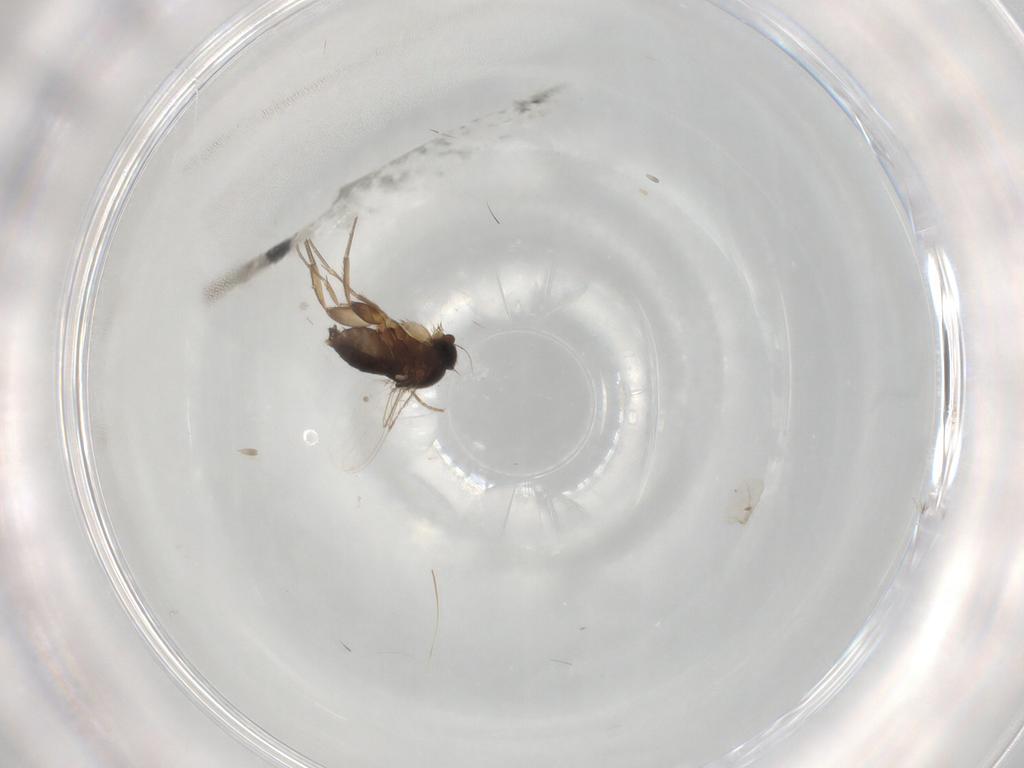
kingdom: Animalia
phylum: Arthropoda
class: Insecta
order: Diptera
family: Phoridae
